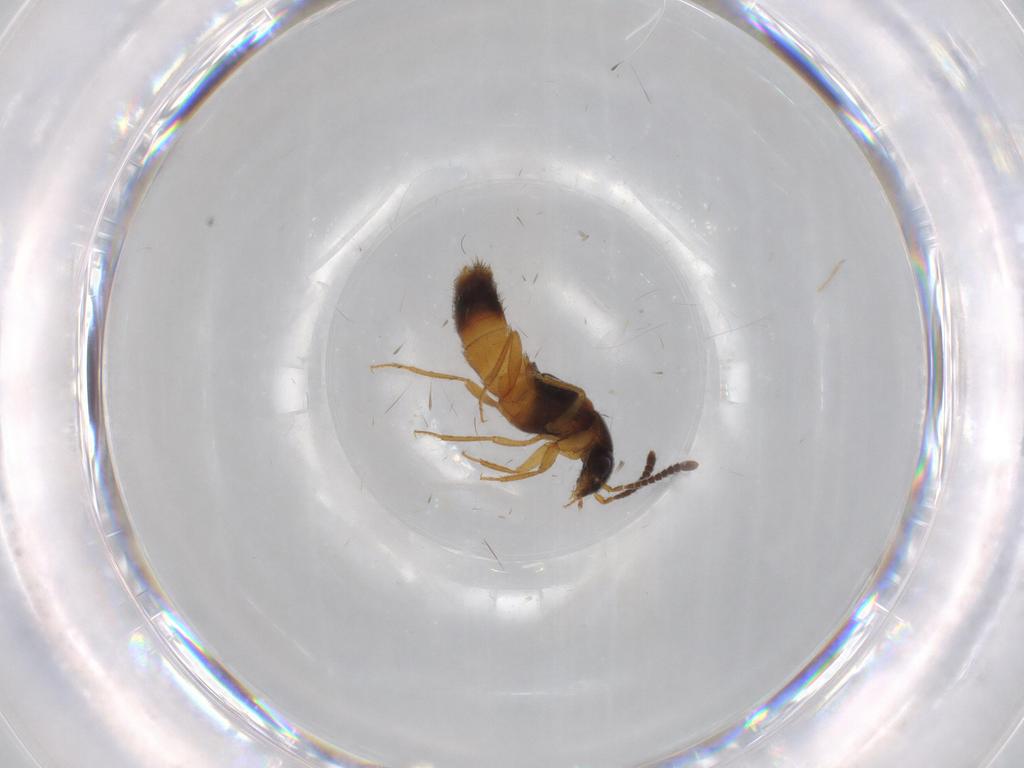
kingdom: Animalia
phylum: Arthropoda
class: Insecta
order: Coleoptera
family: Staphylinidae
